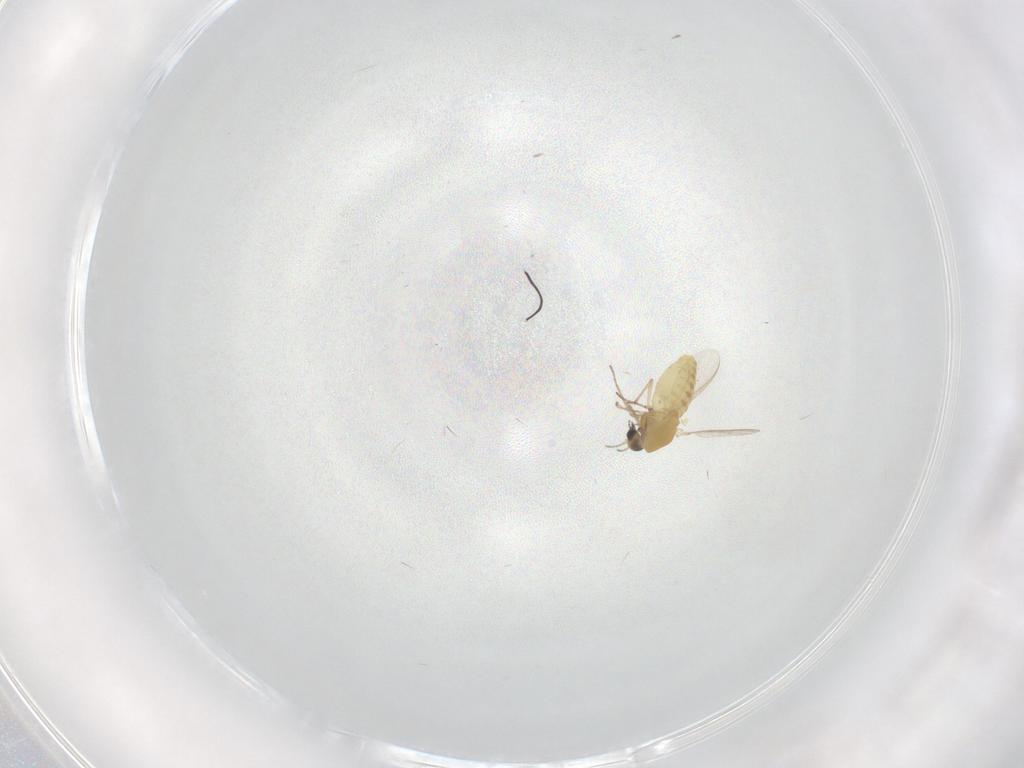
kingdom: Animalia
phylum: Arthropoda
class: Insecta
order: Diptera
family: Chironomidae
